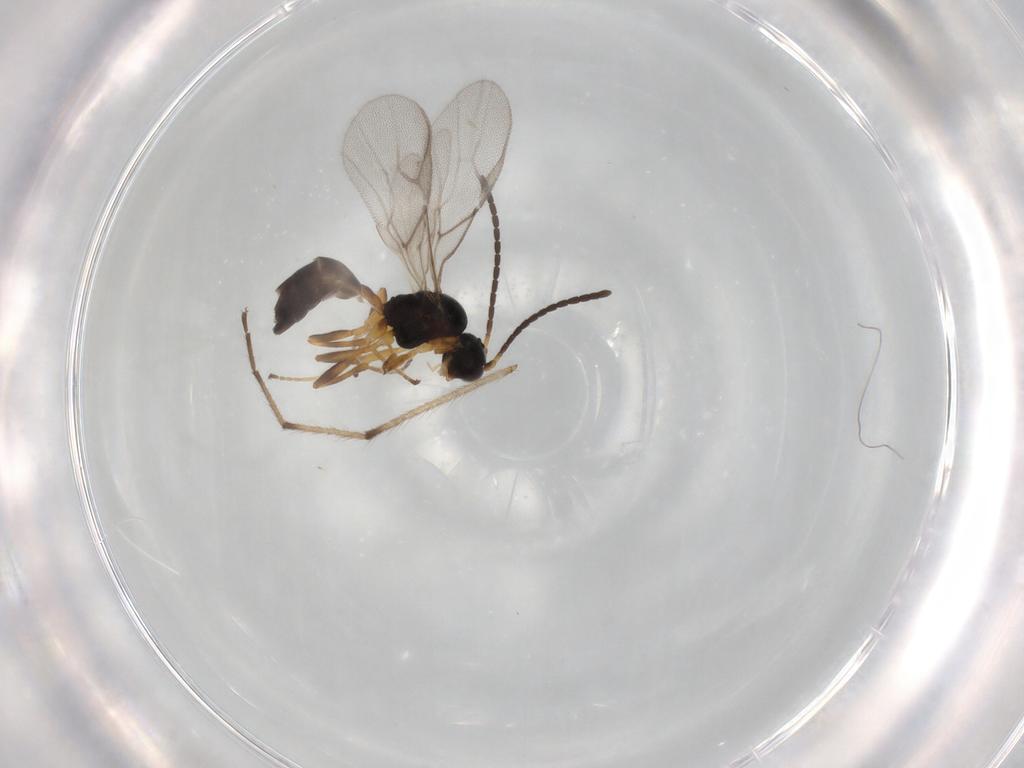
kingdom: Animalia
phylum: Arthropoda
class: Insecta
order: Hymenoptera
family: Braconidae
